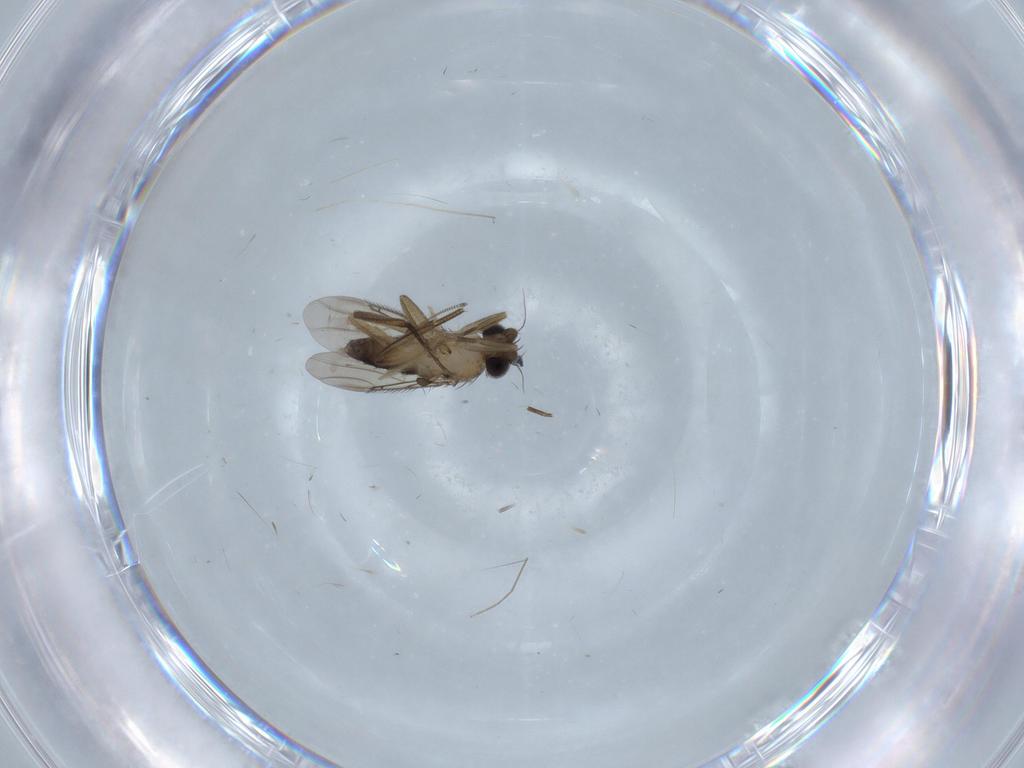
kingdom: Animalia
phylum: Arthropoda
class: Insecta
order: Diptera
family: Phoridae
